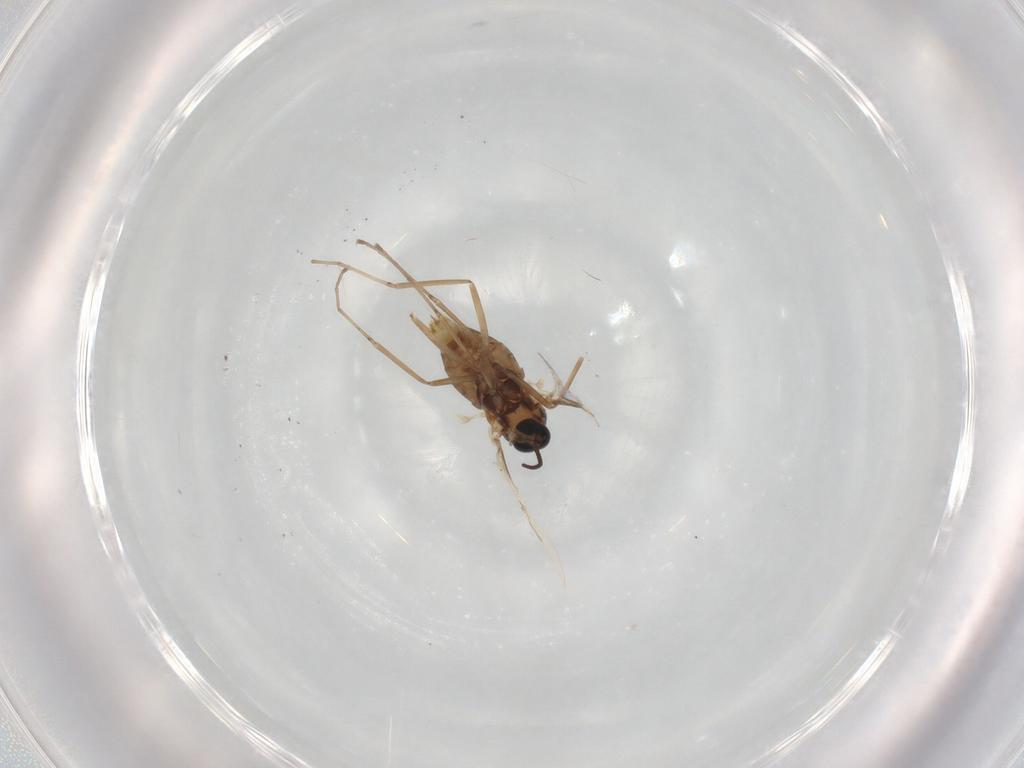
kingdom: Animalia
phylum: Arthropoda
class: Insecta
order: Diptera
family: Cecidomyiidae
